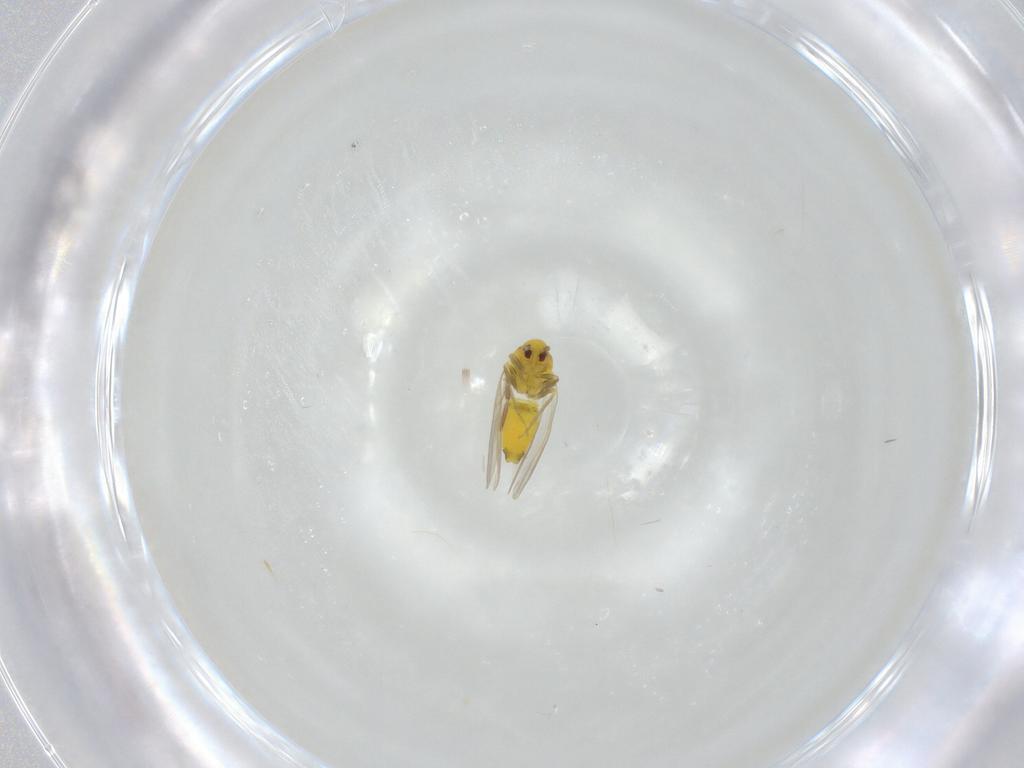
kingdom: Animalia
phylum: Arthropoda
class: Insecta
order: Hemiptera
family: Aleyrodidae
